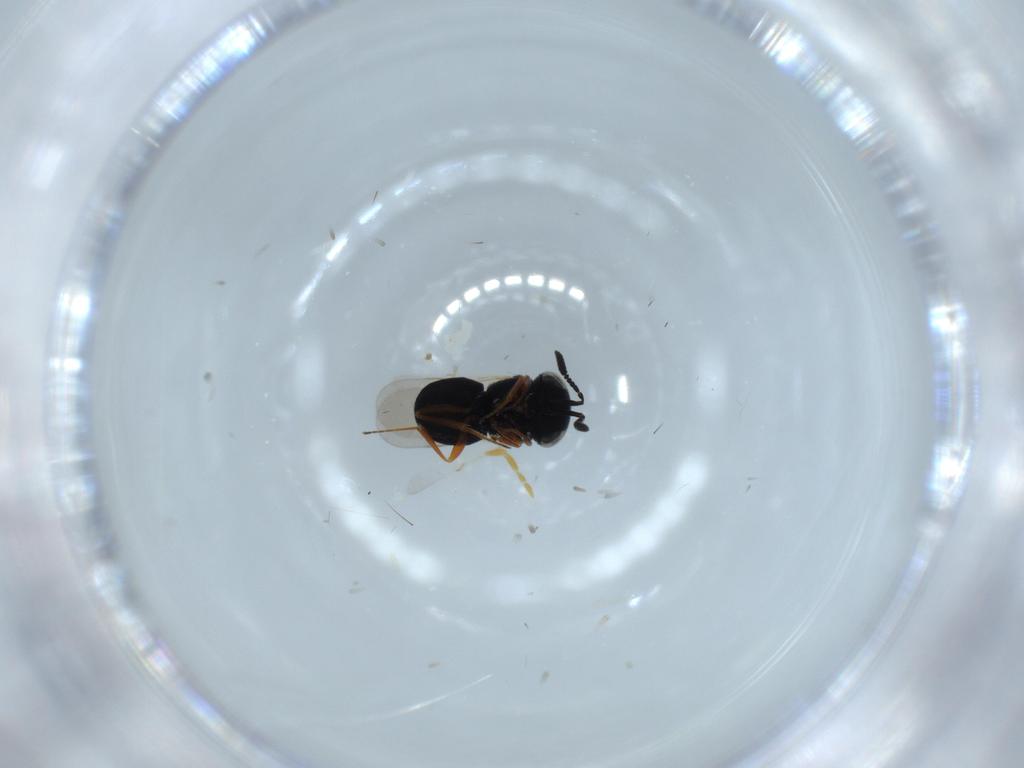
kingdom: Animalia
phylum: Arthropoda
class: Insecta
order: Hymenoptera
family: Scelionidae
